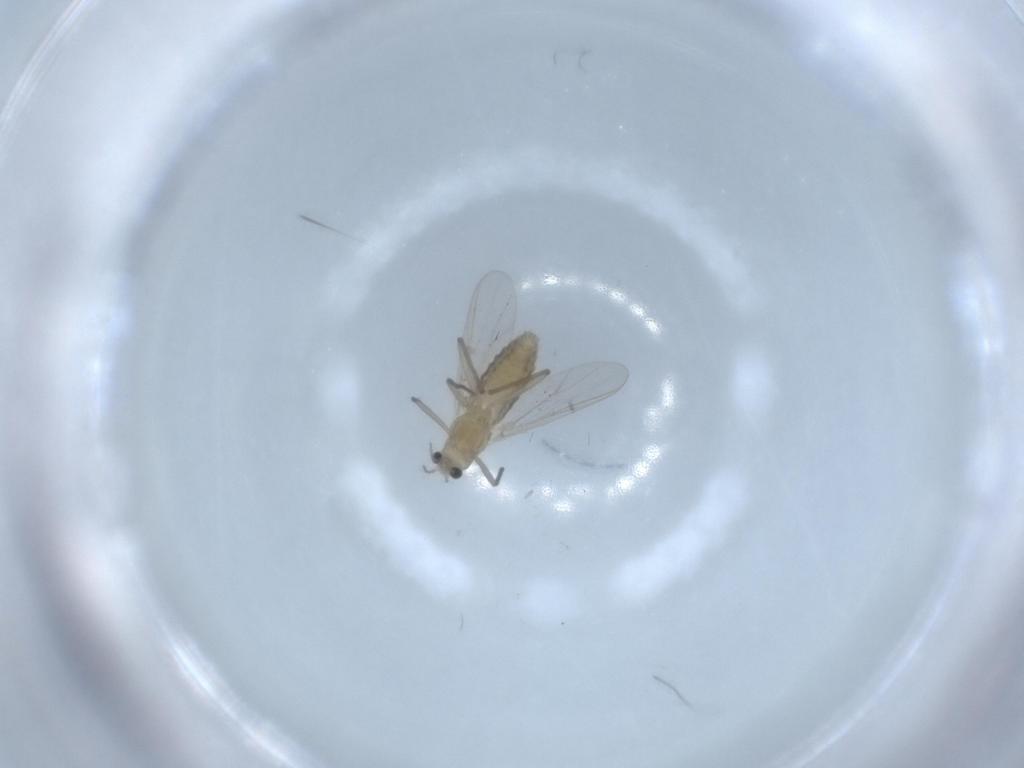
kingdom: Animalia
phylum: Arthropoda
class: Insecta
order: Diptera
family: Chironomidae
